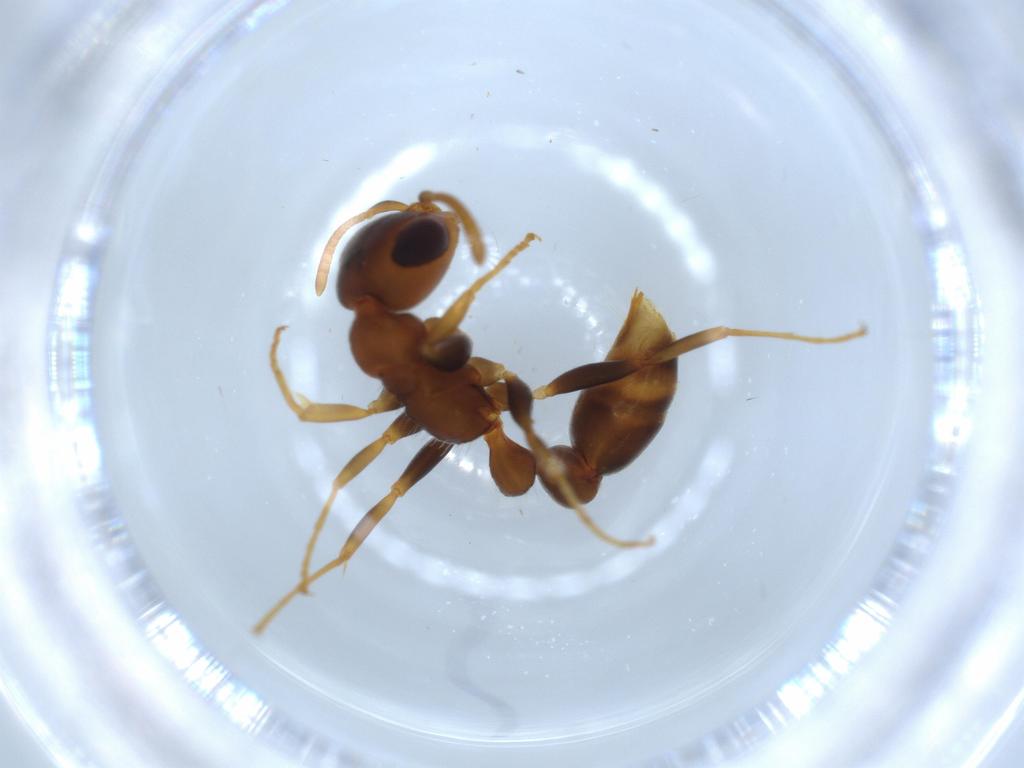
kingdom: Animalia
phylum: Arthropoda
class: Insecta
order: Hymenoptera
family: Formicidae
